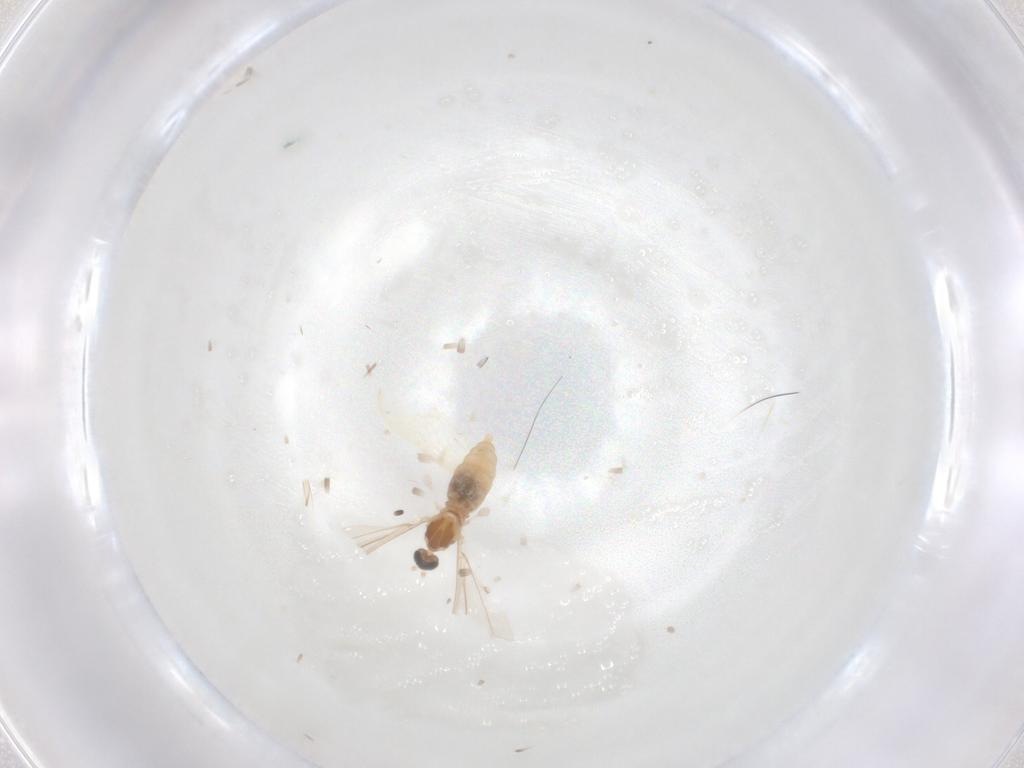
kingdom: Animalia
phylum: Arthropoda
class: Insecta
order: Diptera
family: Cecidomyiidae
